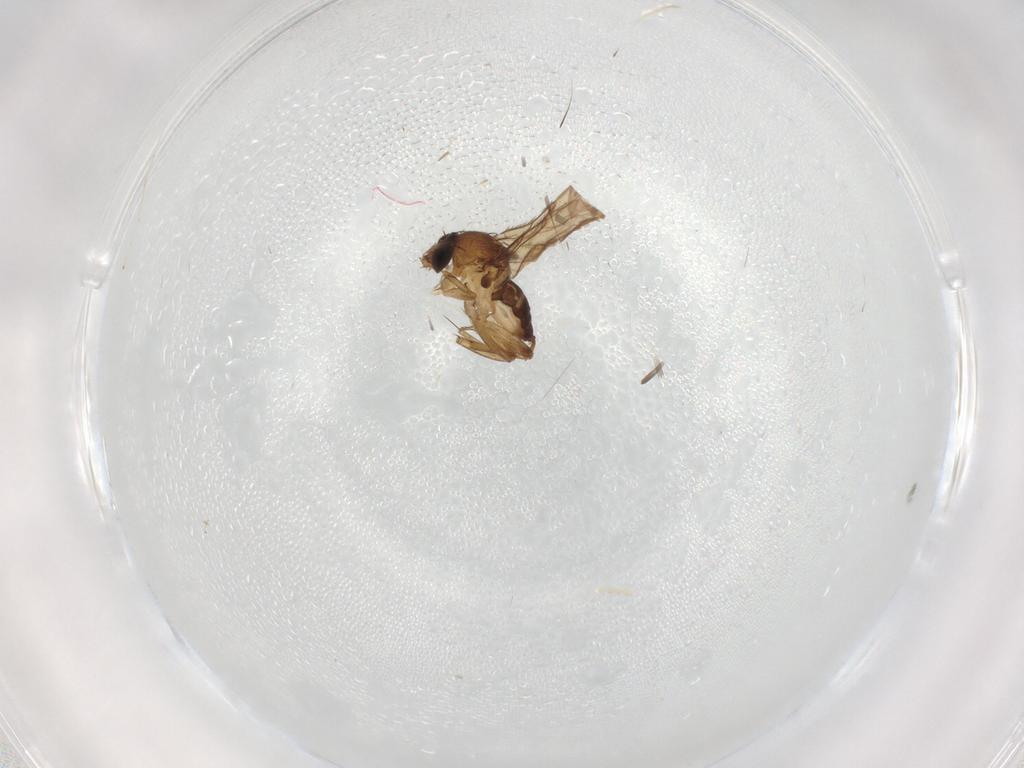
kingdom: Animalia
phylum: Arthropoda
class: Insecta
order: Diptera
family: Phoridae
